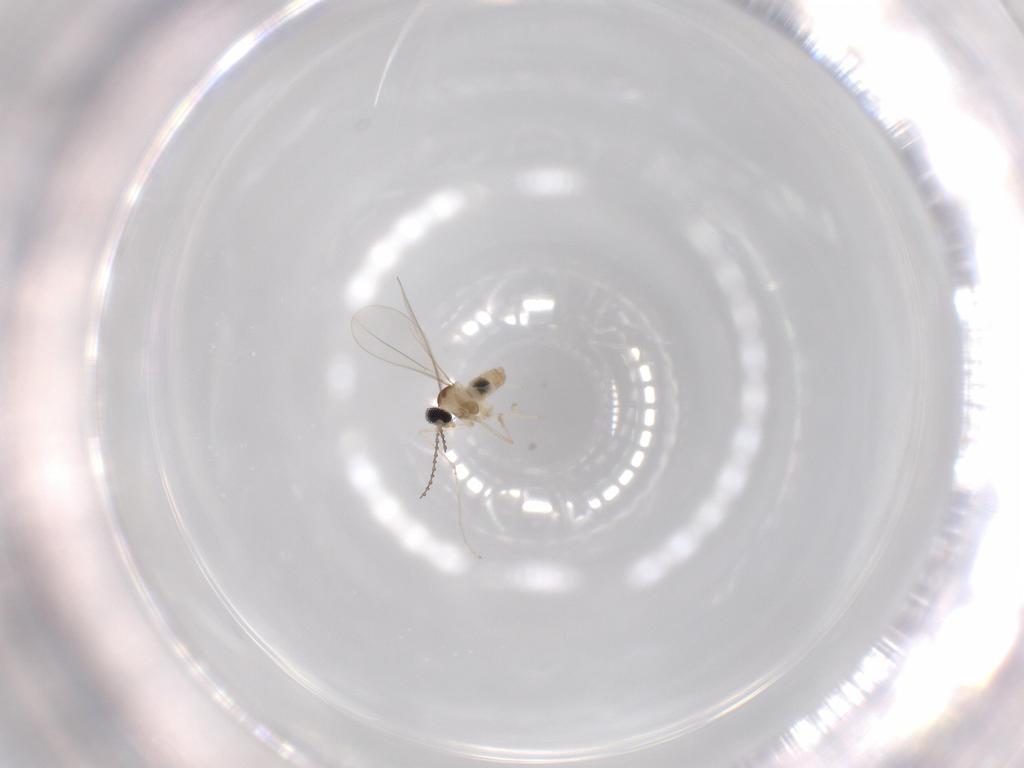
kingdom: Animalia
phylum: Arthropoda
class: Insecta
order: Diptera
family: Cecidomyiidae
